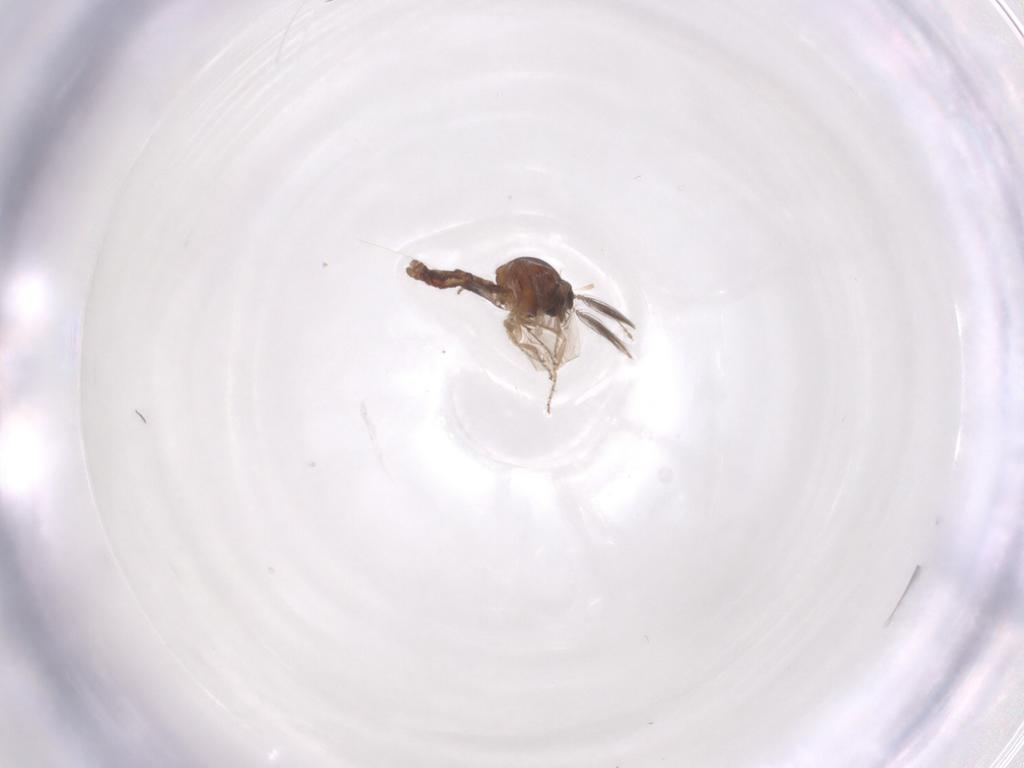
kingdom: Animalia
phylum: Arthropoda
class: Insecta
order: Diptera
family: Ceratopogonidae
